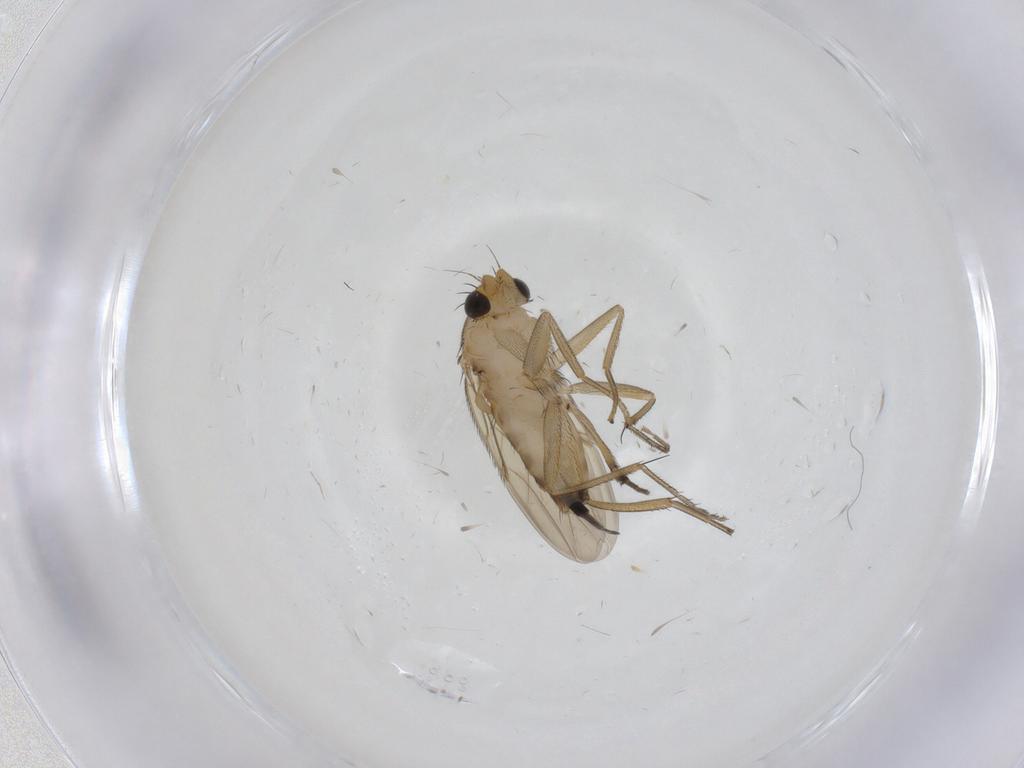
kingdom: Animalia
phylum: Arthropoda
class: Insecta
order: Diptera
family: Phoridae
